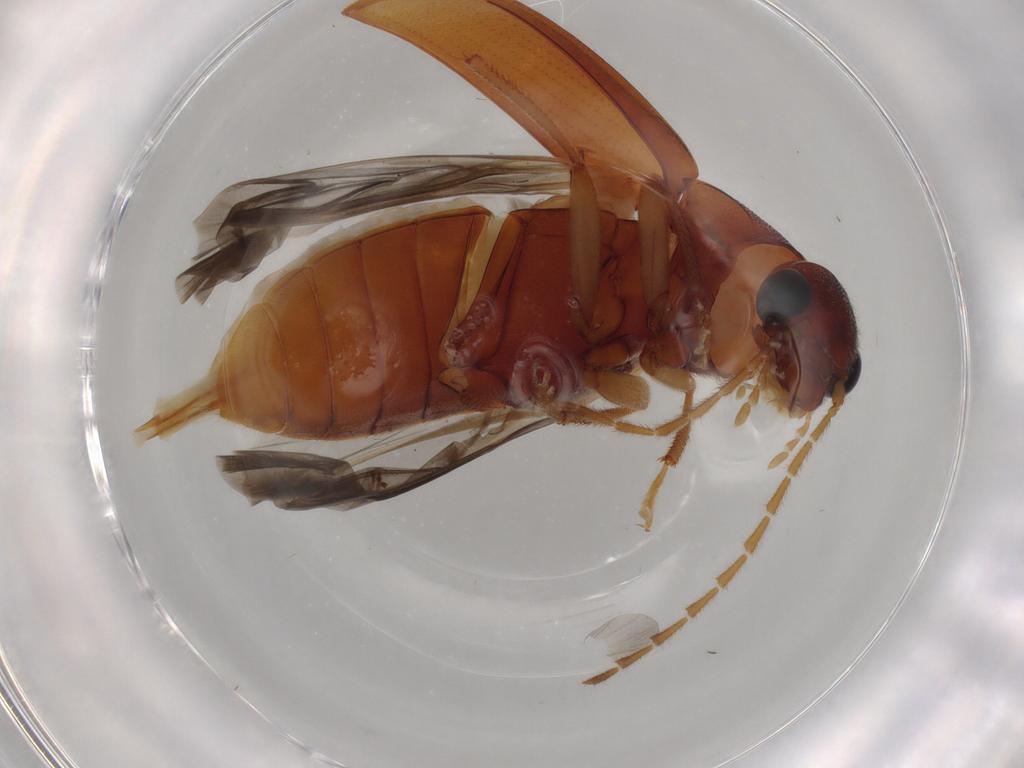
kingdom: Animalia
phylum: Arthropoda
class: Insecta
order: Coleoptera
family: Ptilodactylidae
